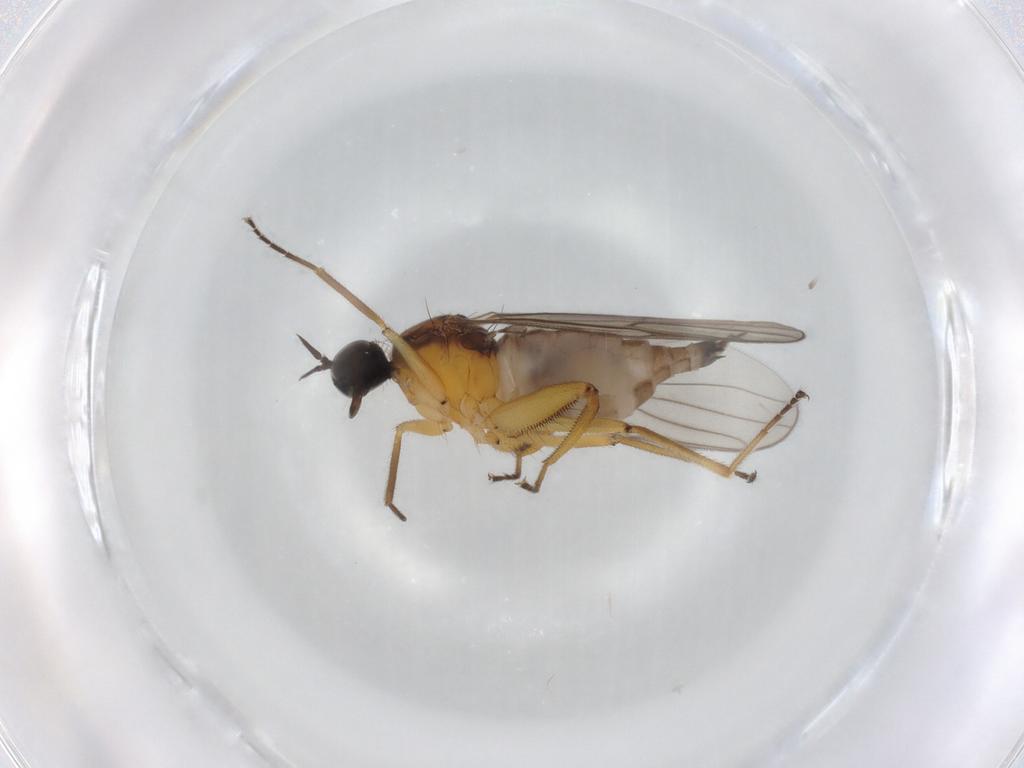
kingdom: Animalia
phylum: Arthropoda
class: Insecta
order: Diptera
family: Hybotidae
